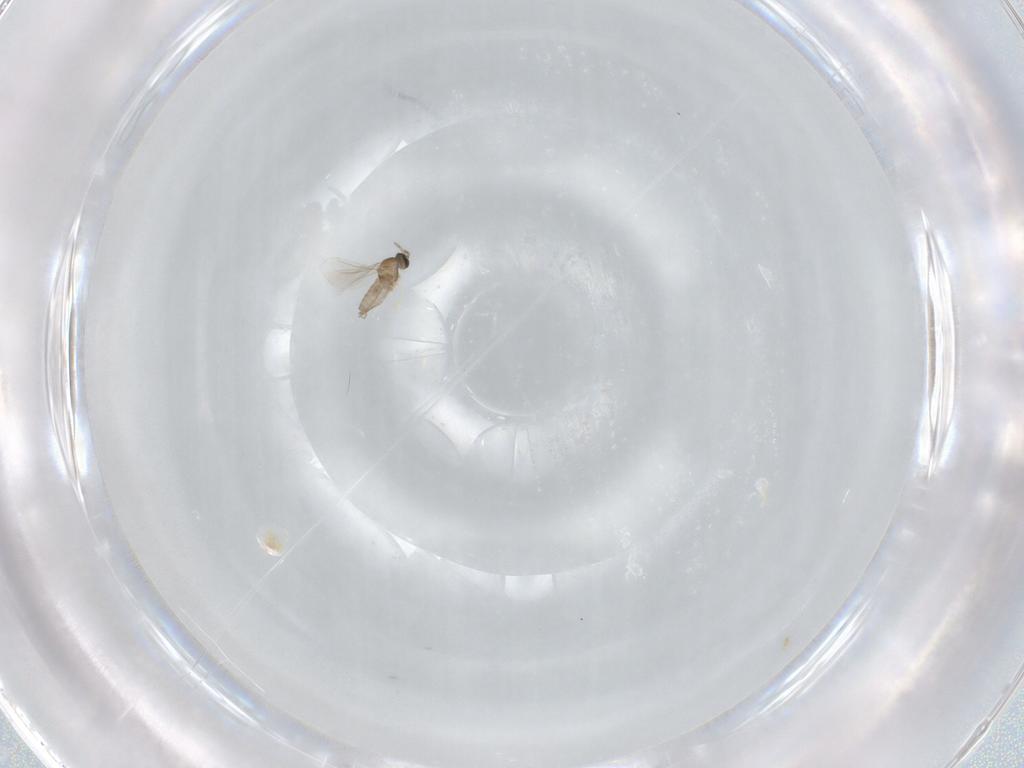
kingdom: Animalia
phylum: Arthropoda
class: Insecta
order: Diptera
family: Cecidomyiidae
